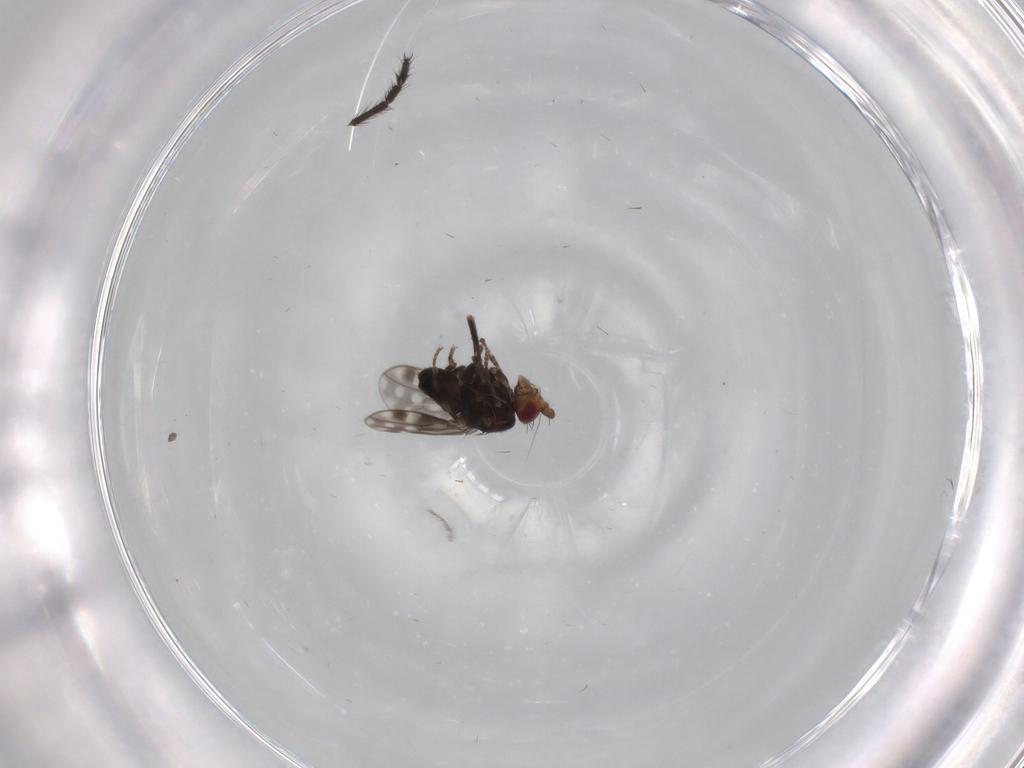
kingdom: Animalia
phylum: Arthropoda
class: Insecta
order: Diptera
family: Sphaeroceridae
